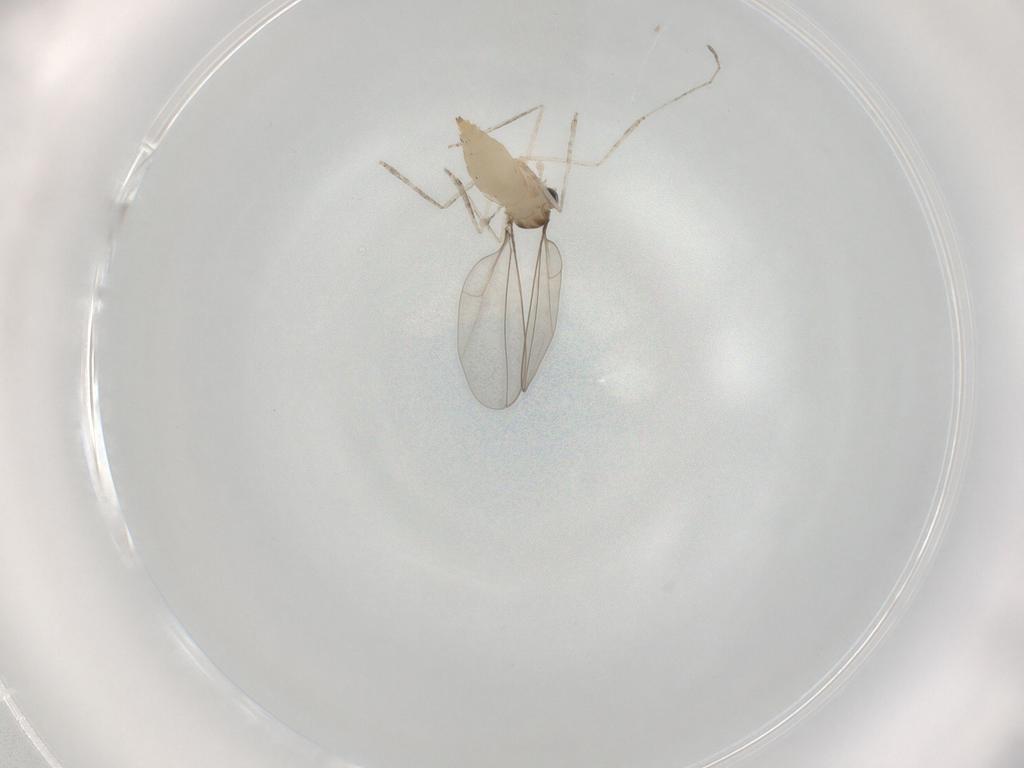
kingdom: Animalia
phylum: Arthropoda
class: Insecta
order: Diptera
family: Cecidomyiidae
